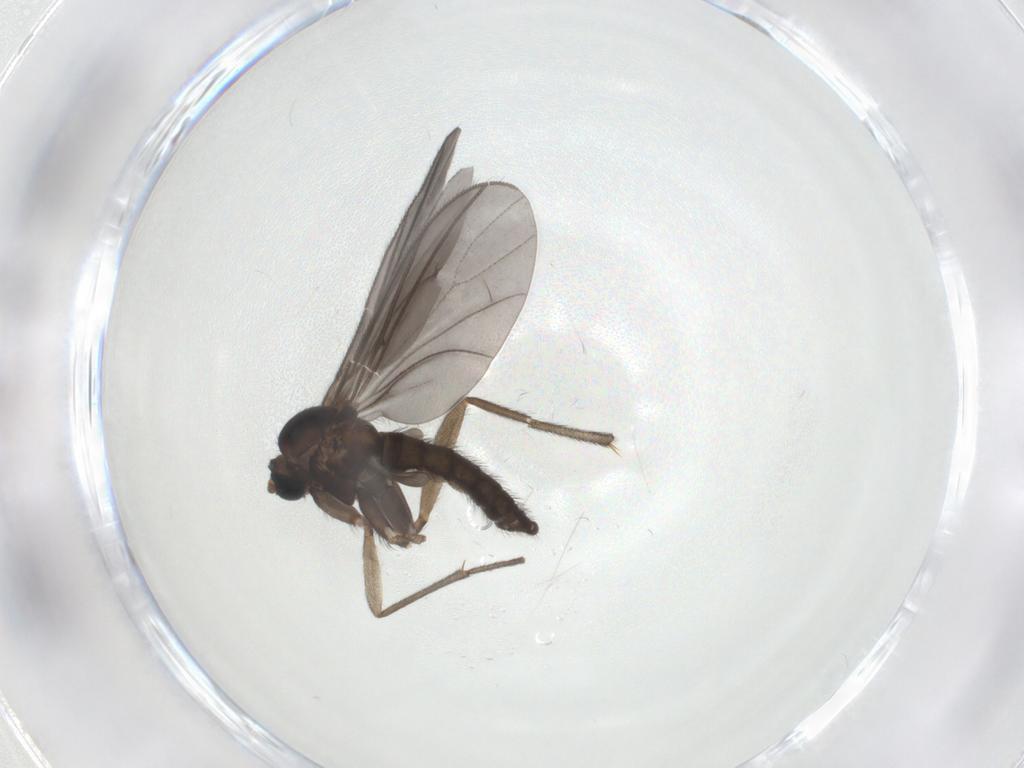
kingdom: Animalia
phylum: Arthropoda
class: Insecta
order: Diptera
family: Sciaridae
